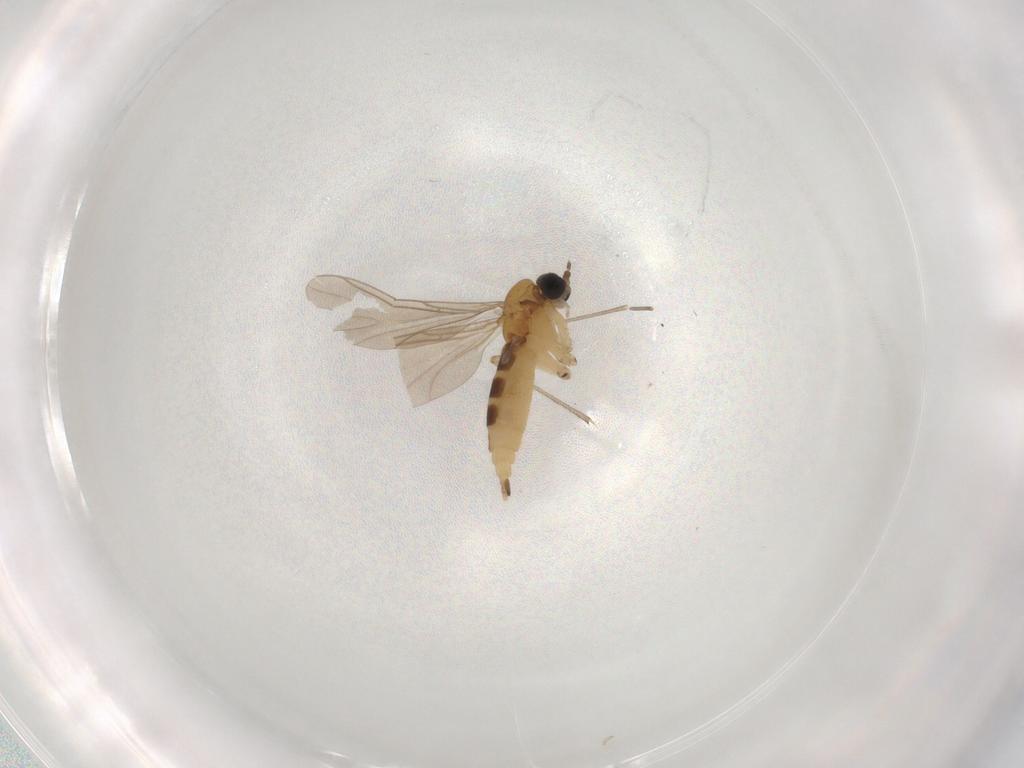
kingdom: Animalia
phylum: Arthropoda
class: Insecta
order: Diptera
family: Sciaridae
